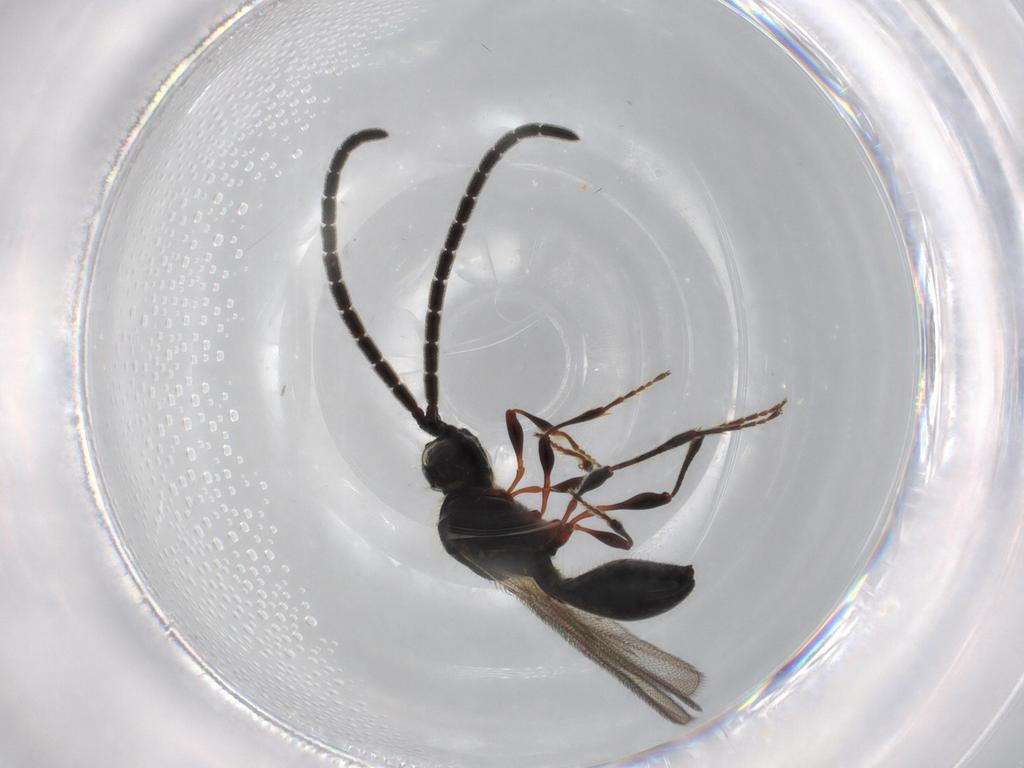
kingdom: Animalia
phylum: Arthropoda
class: Insecta
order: Hymenoptera
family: Diapriidae
